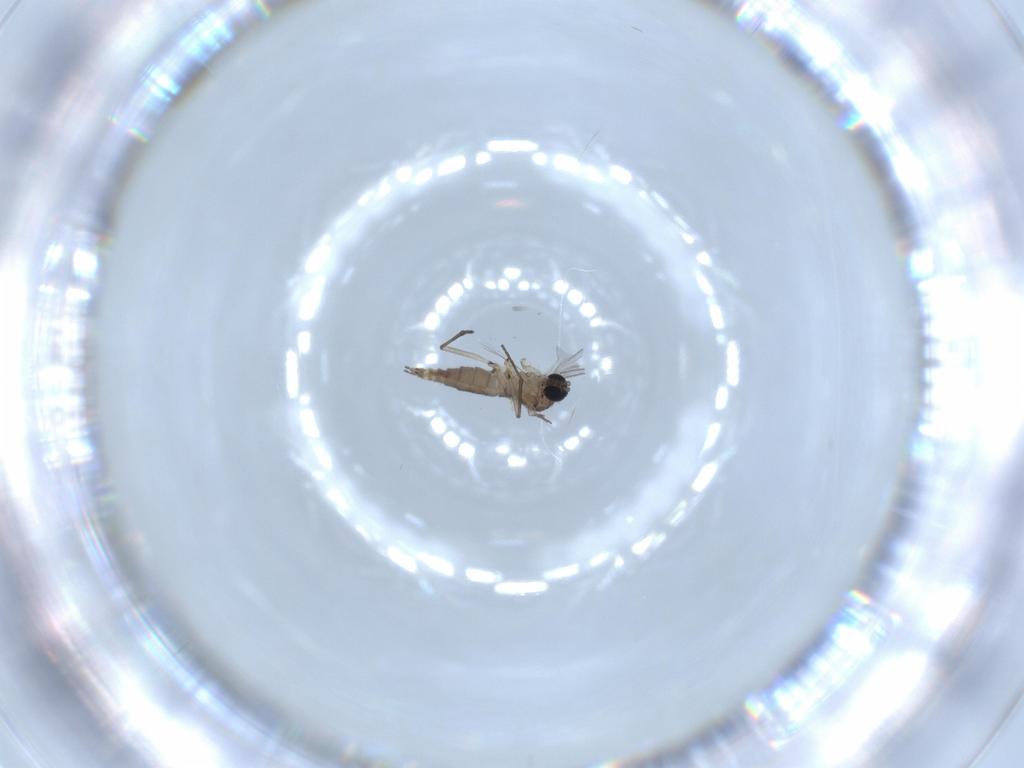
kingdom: Animalia
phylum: Arthropoda
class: Insecta
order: Diptera
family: Sciaridae
